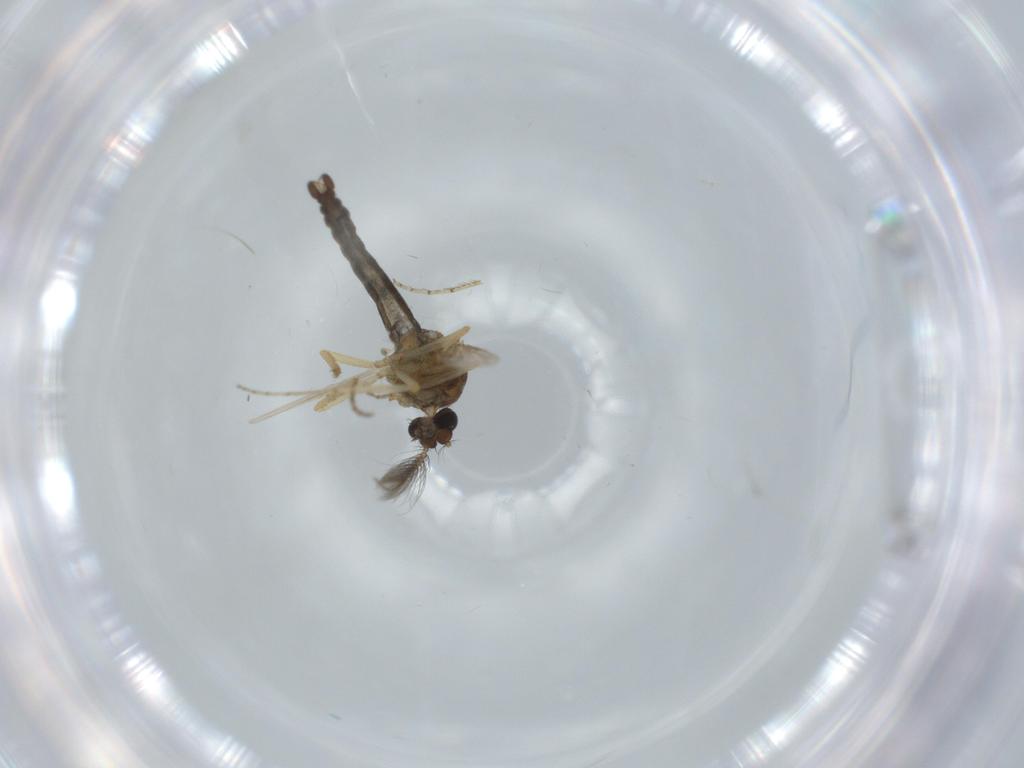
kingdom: Animalia
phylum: Arthropoda
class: Insecta
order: Diptera
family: Ceratopogonidae
